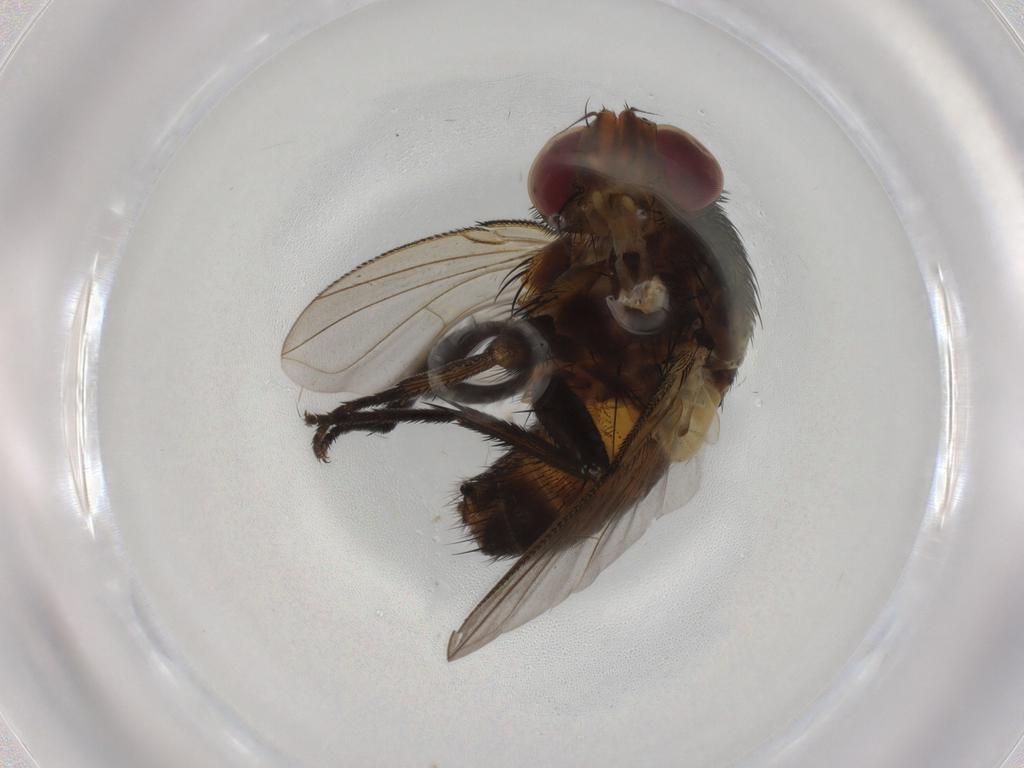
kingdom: Animalia
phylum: Arthropoda
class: Insecta
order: Diptera
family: Tachinidae
